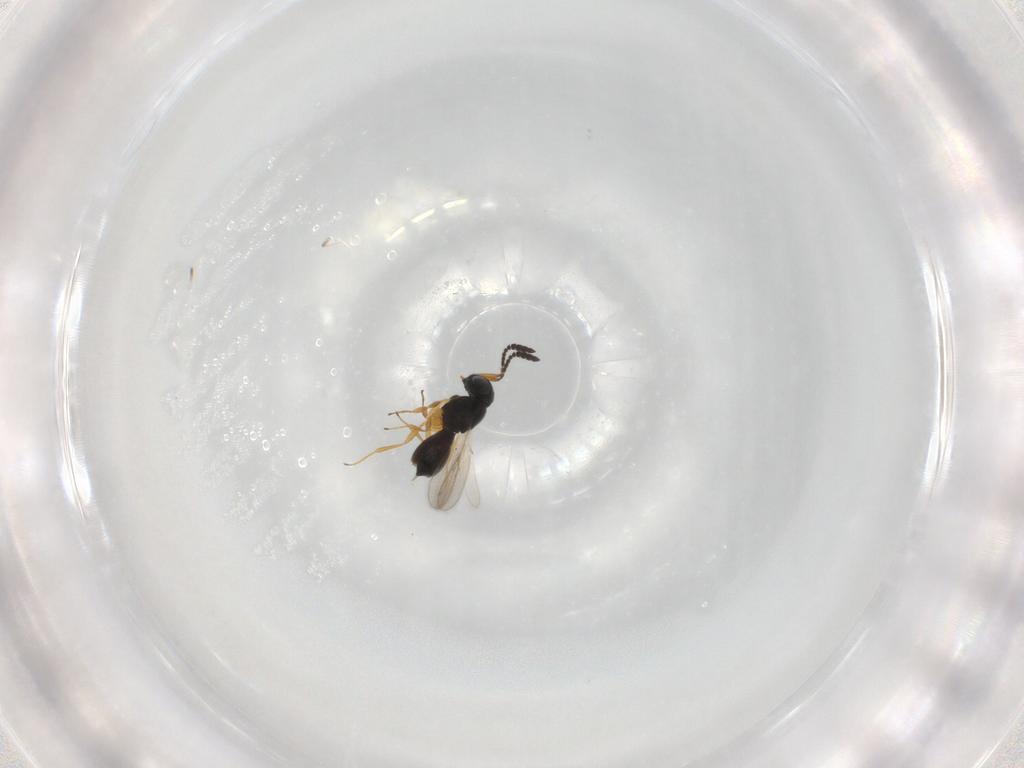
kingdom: Animalia
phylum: Arthropoda
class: Insecta
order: Hymenoptera
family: Scelionidae
